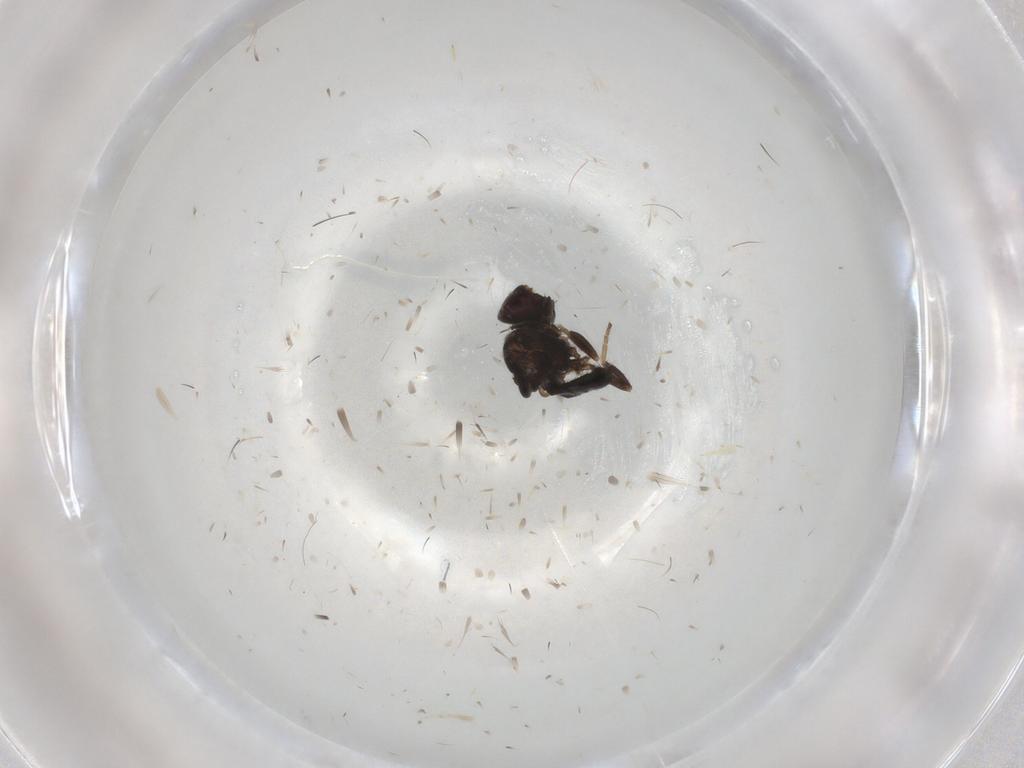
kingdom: Animalia
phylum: Arthropoda
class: Insecta
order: Diptera
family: Chloropidae
